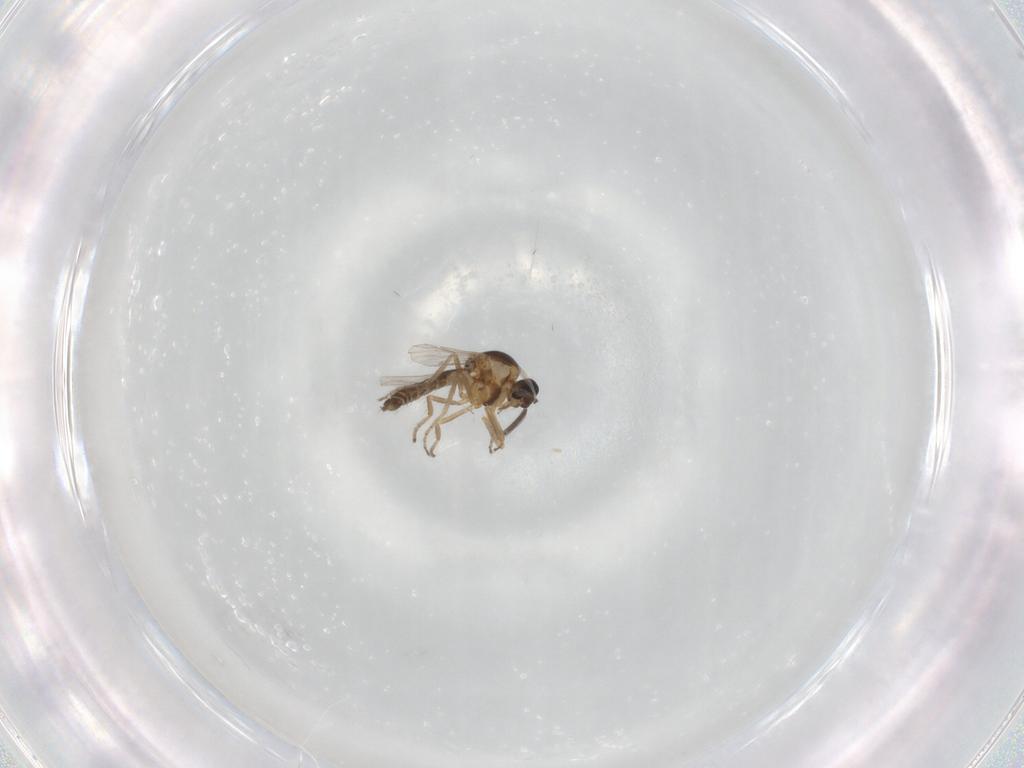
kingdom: Animalia
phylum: Arthropoda
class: Insecta
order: Diptera
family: Ceratopogonidae
